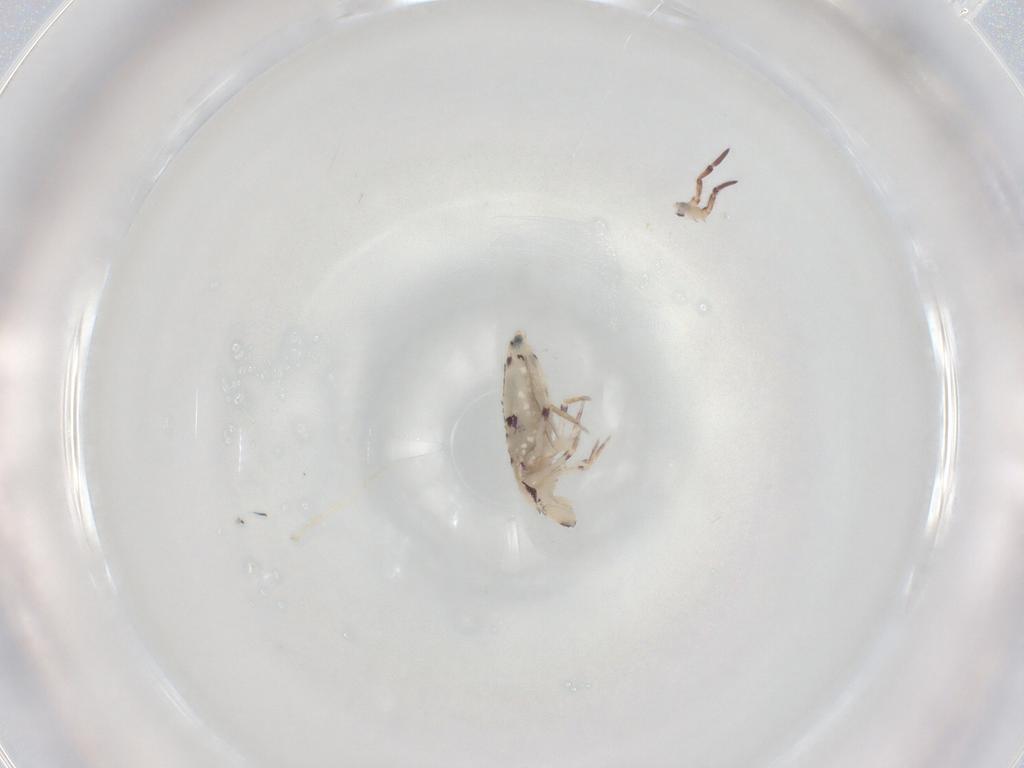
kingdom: Animalia
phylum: Arthropoda
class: Collembola
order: Entomobryomorpha
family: Entomobryidae
